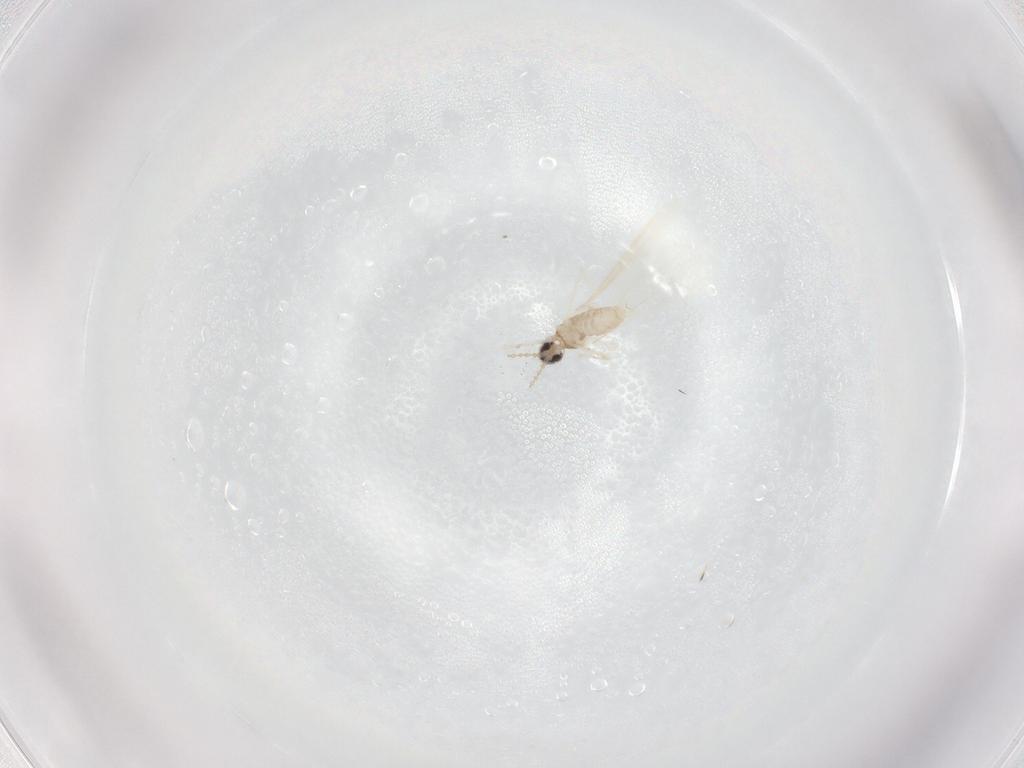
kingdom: Animalia
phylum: Arthropoda
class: Insecta
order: Diptera
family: Cecidomyiidae
